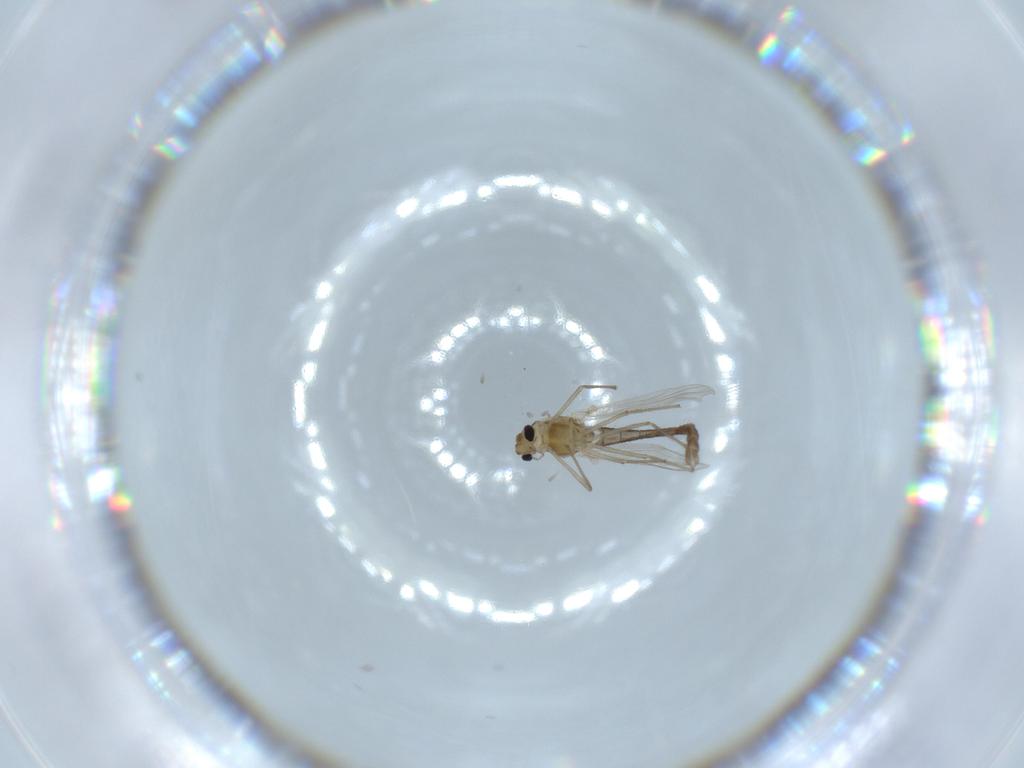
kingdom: Animalia
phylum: Arthropoda
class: Insecta
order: Diptera
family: Chironomidae
